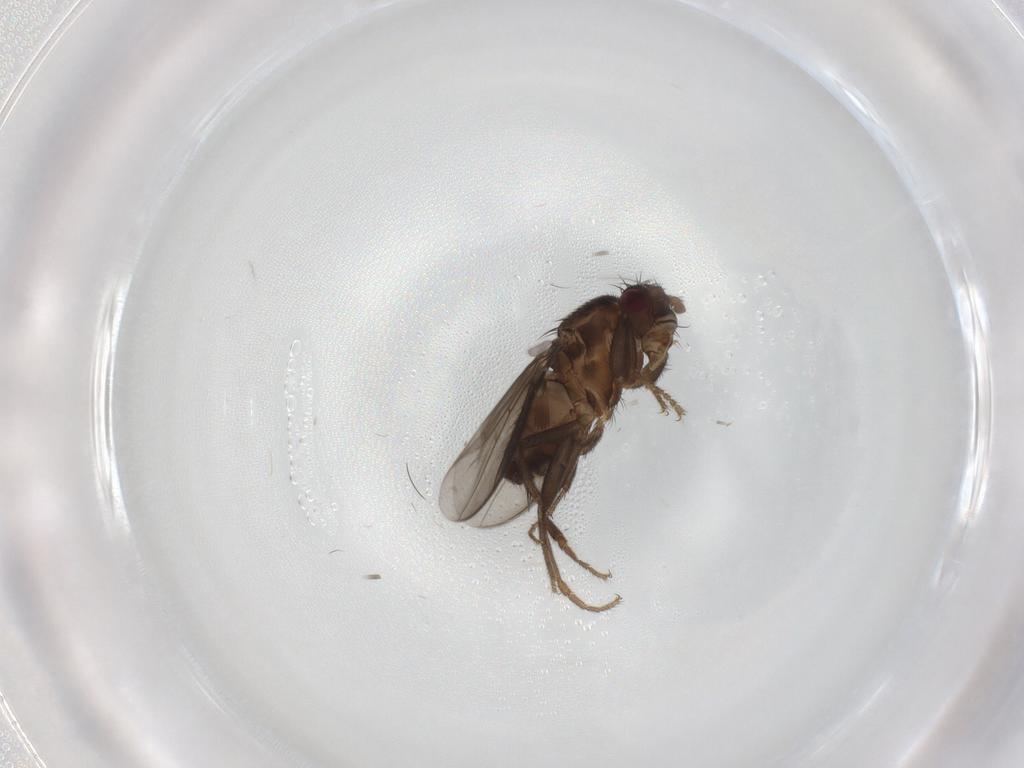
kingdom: Animalia
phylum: Arthropoda
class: Insecta
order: Diptera
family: Sphaeroceridae
